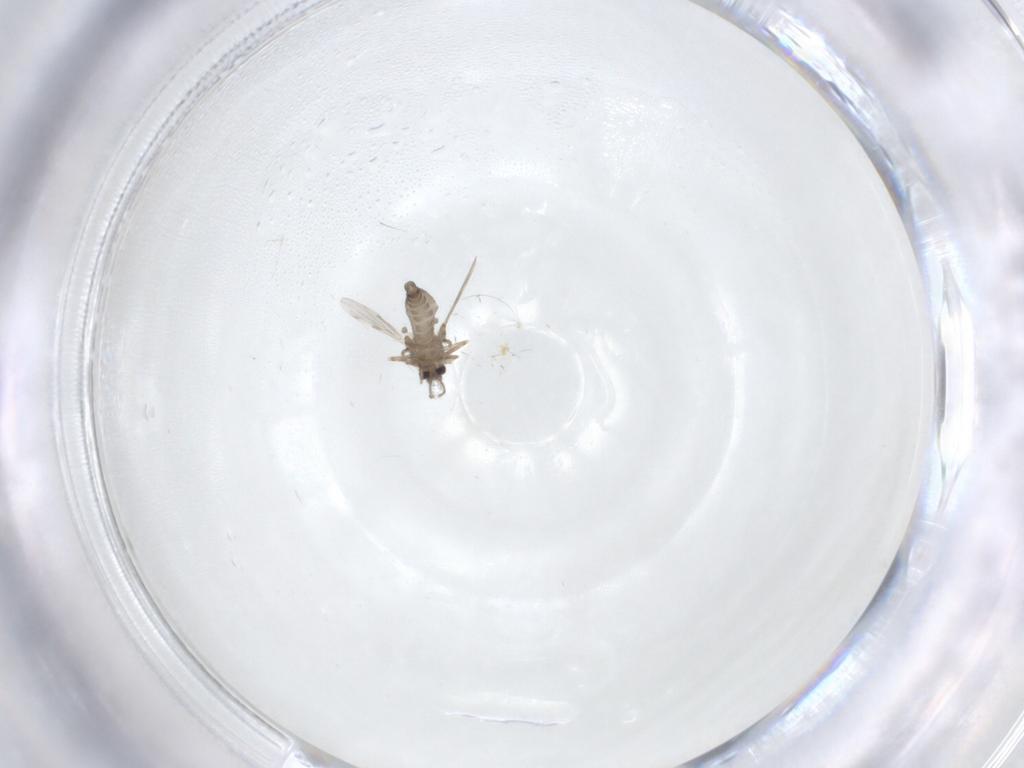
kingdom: Animalia
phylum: Arthropoda
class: Insecta
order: Diptera
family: Ceratopogonidae
